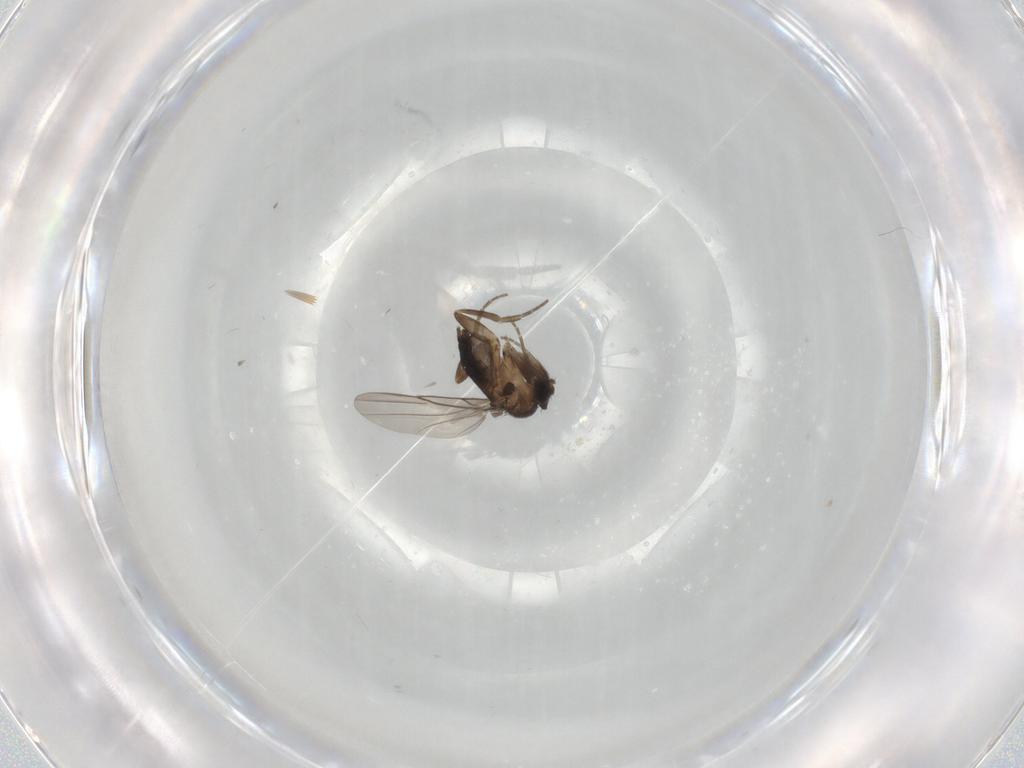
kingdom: Animalia
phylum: Arthropoda
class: Insecta
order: Diptera
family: Phoridae
